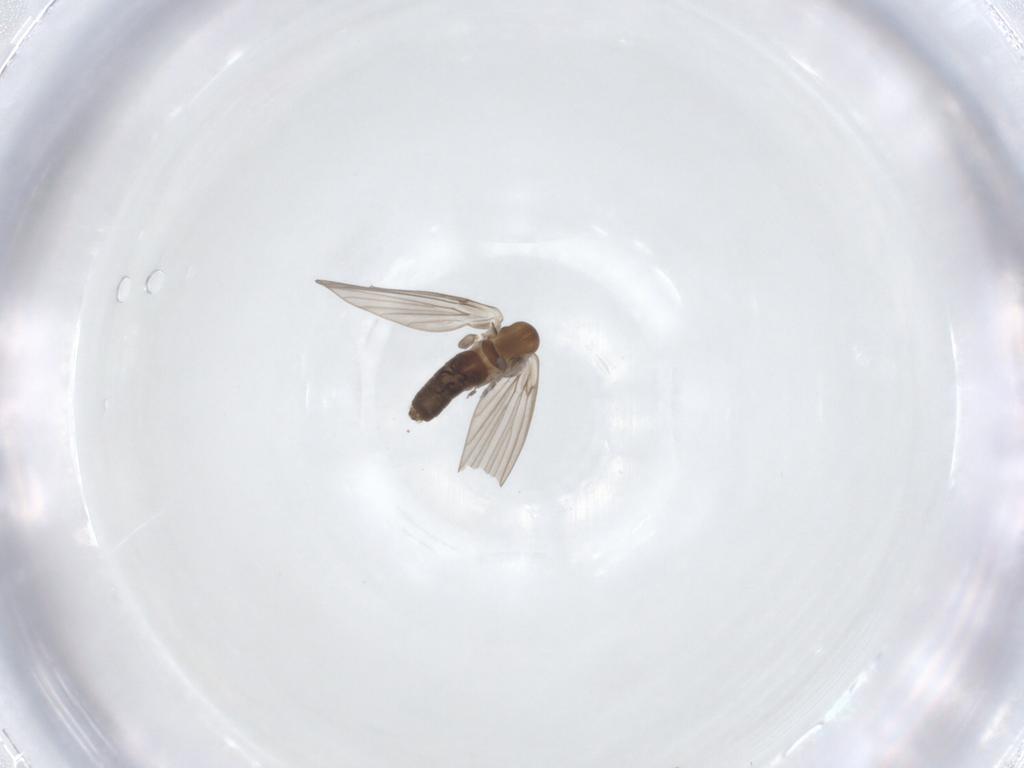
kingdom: Animalia
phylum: Arthropoda
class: Insecta
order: Diptera
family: Chironomidae
